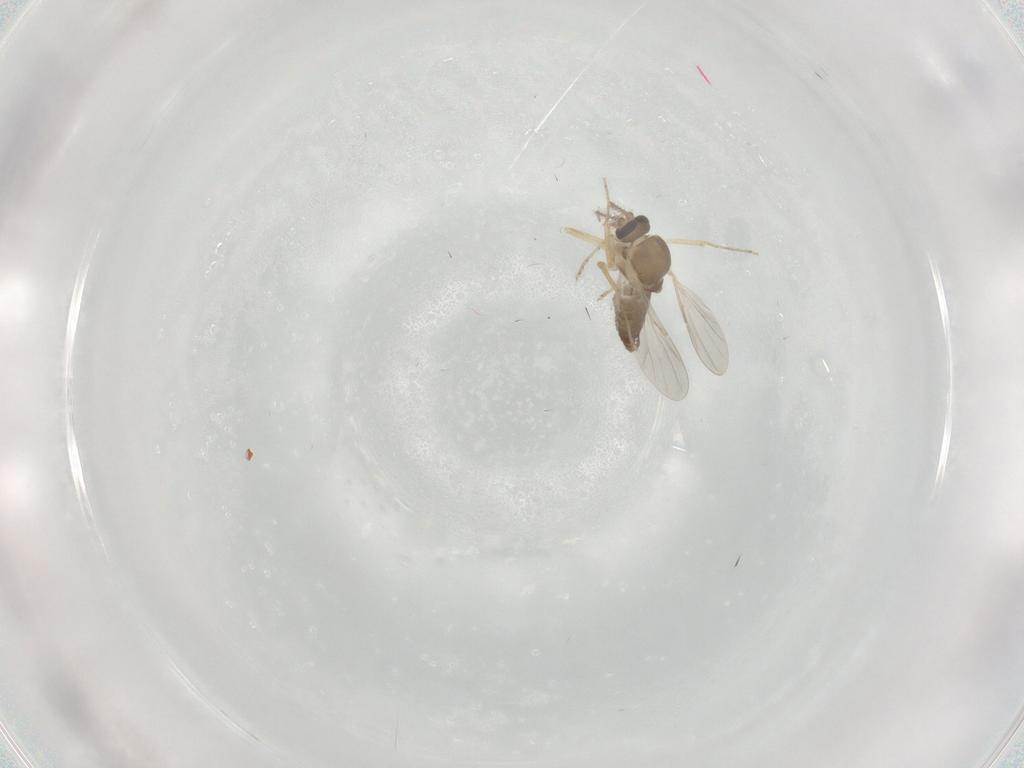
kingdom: Animalia
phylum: Arthropoda
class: Insecta
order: Diptera
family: Ceratopogonidae
